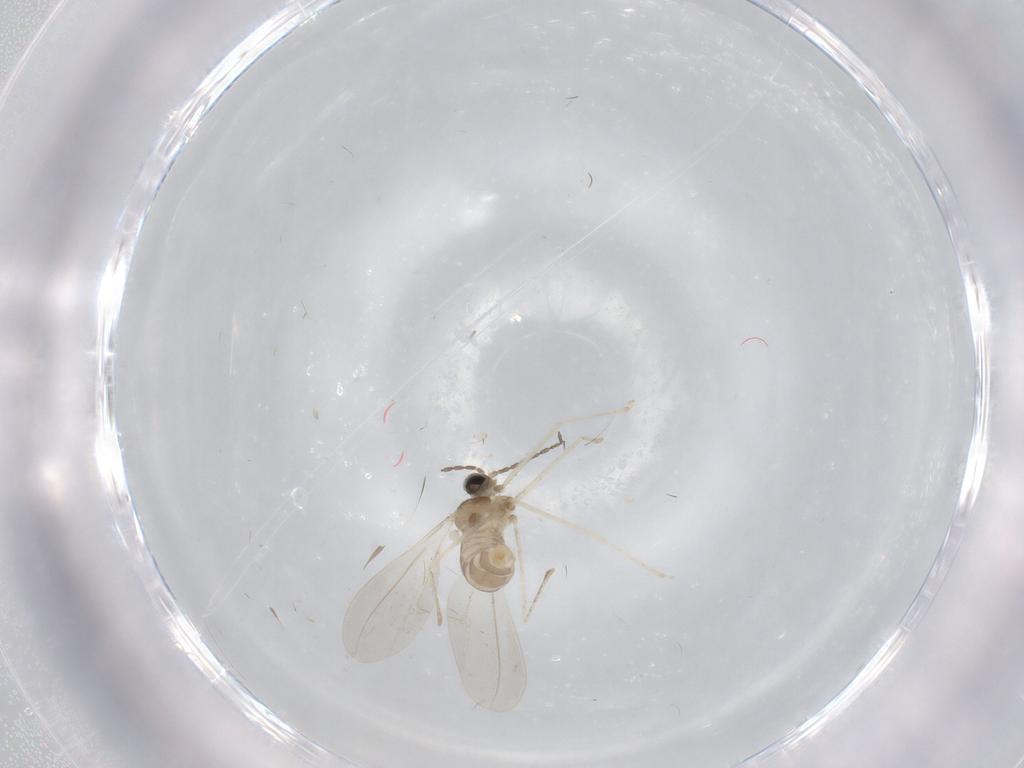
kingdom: Animalia
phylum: Arthropoda
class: Insecta
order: Diptera
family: Cecidomyiidae
